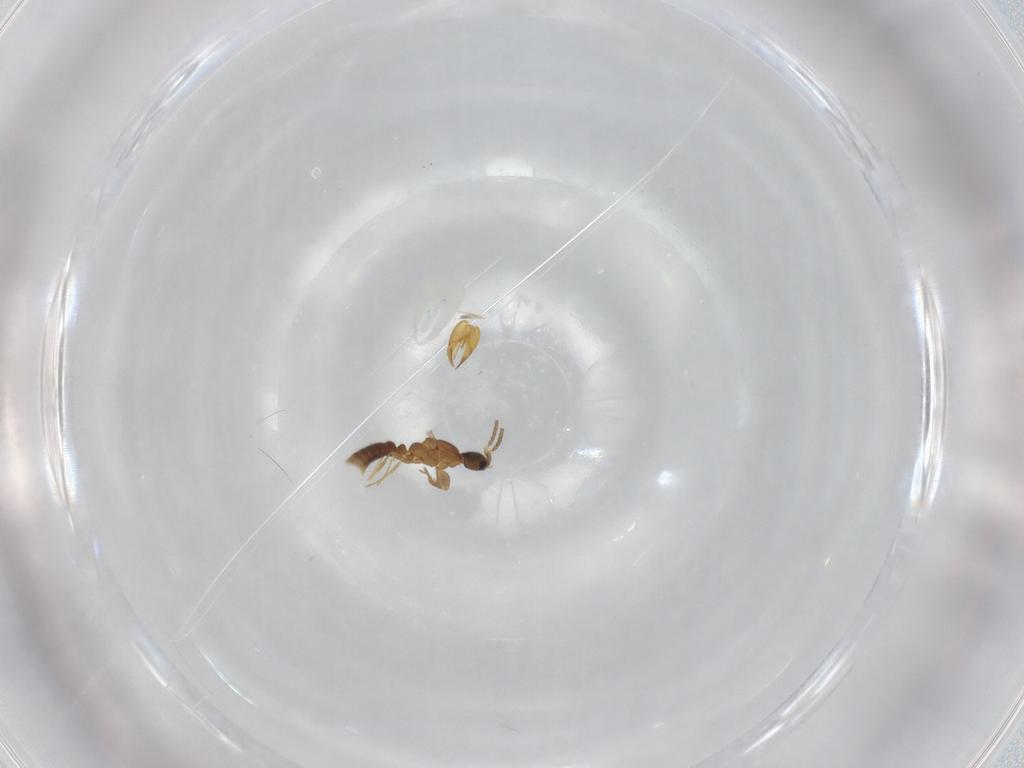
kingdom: Animalia
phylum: Arthropoda
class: Insecta
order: Hymenoptera
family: Formicidae
